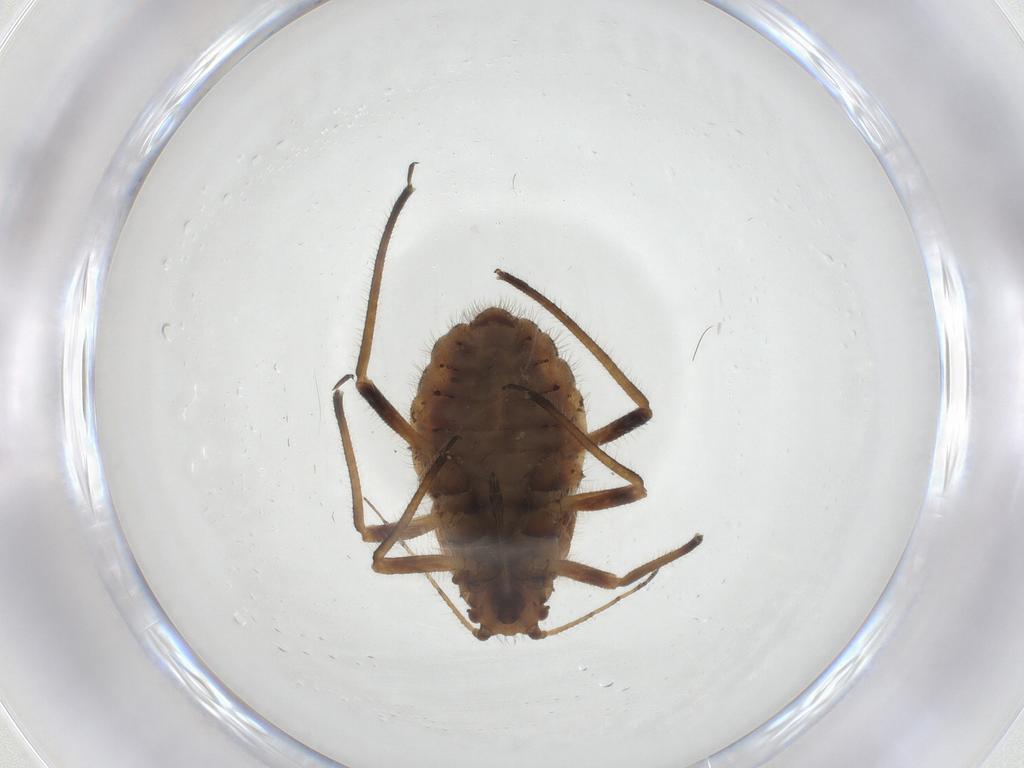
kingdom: Animalia
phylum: Arthropoda
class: Insecta
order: Hemiptera
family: Aphididae
